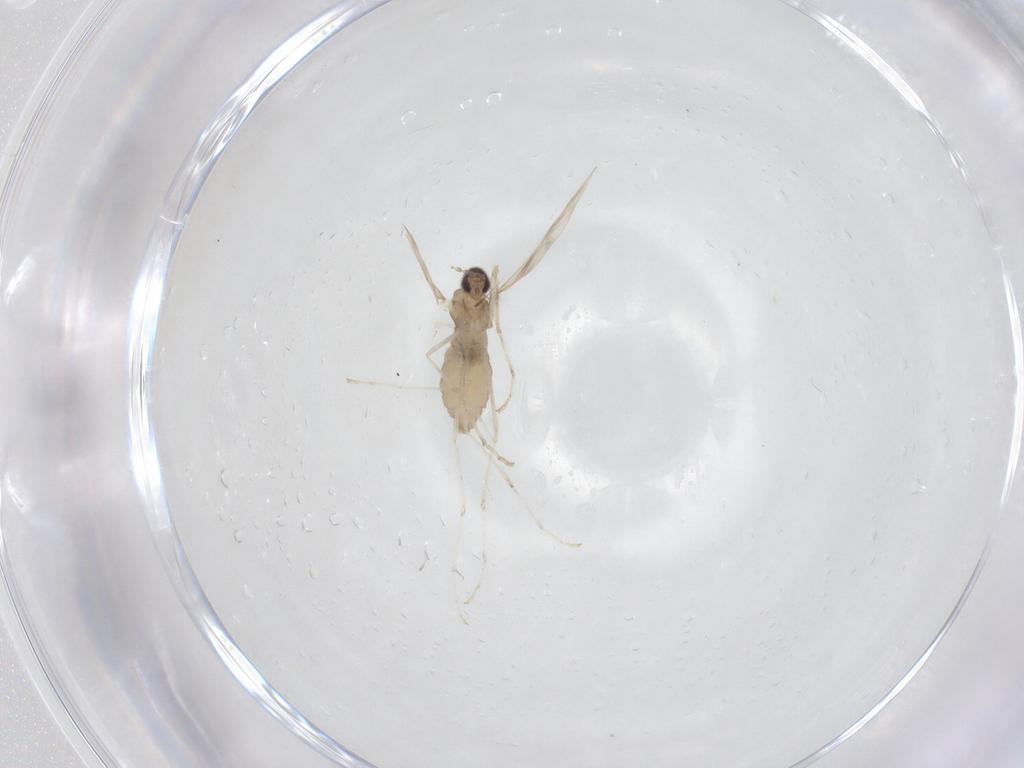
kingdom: Animalia
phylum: Arthropoda
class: Insecta
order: Diptera
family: Cecidomyiidae
